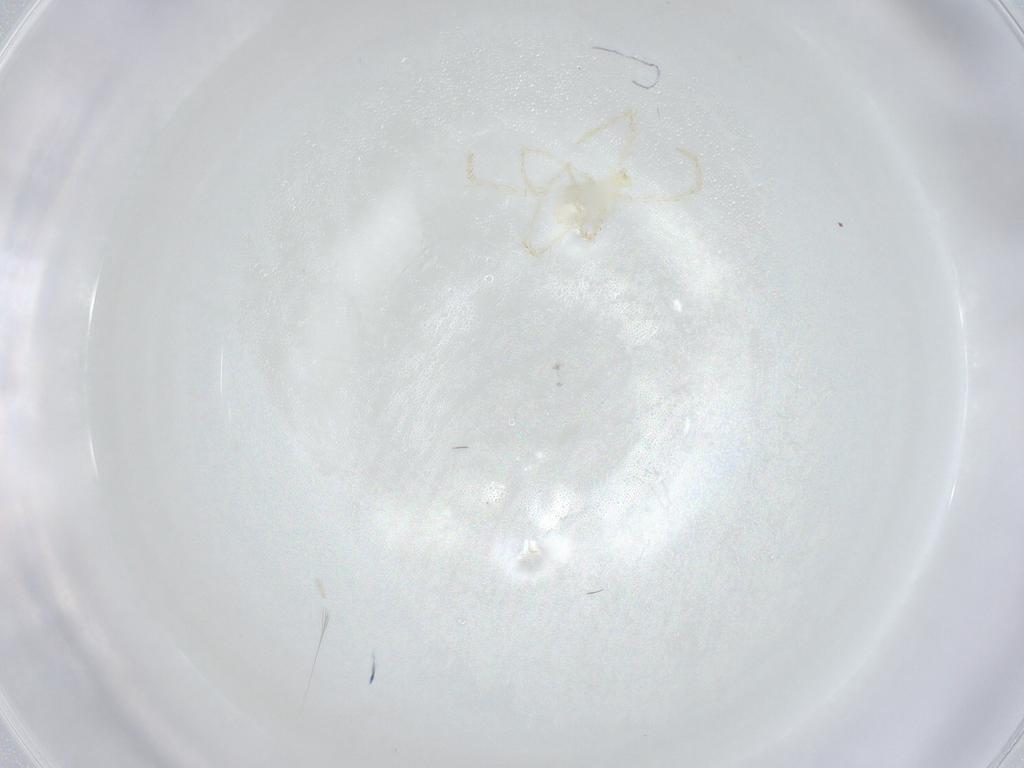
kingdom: Animalia
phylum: Arthropoda
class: Arachnida
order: Trombidiformes
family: Erythraeidae
